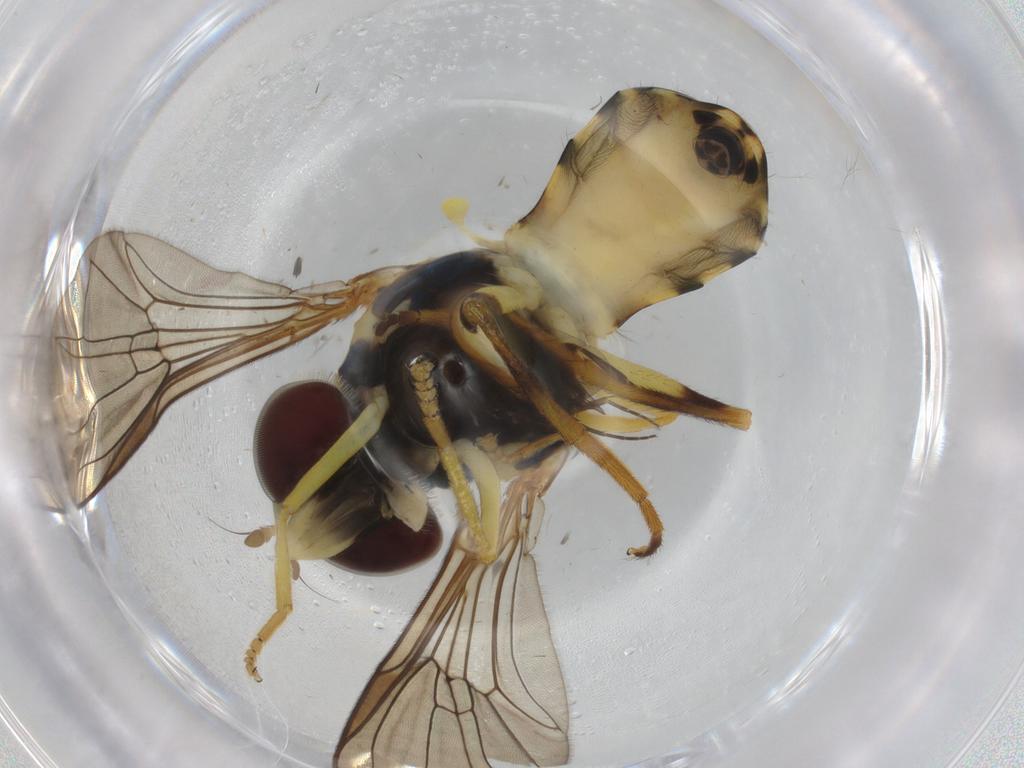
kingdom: Animalia
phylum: Arthropoda
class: Insecta
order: Diptera
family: Syrphidae
